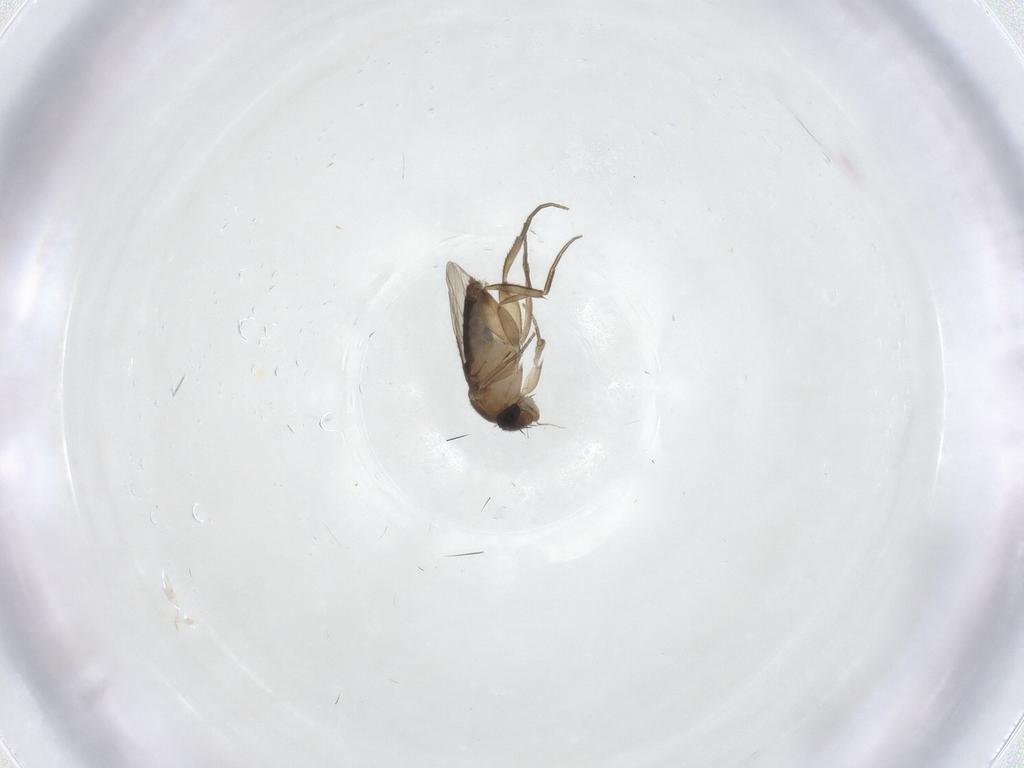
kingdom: Animalia
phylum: Arthropoda
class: Insecta
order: Diptera
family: Phoridae
